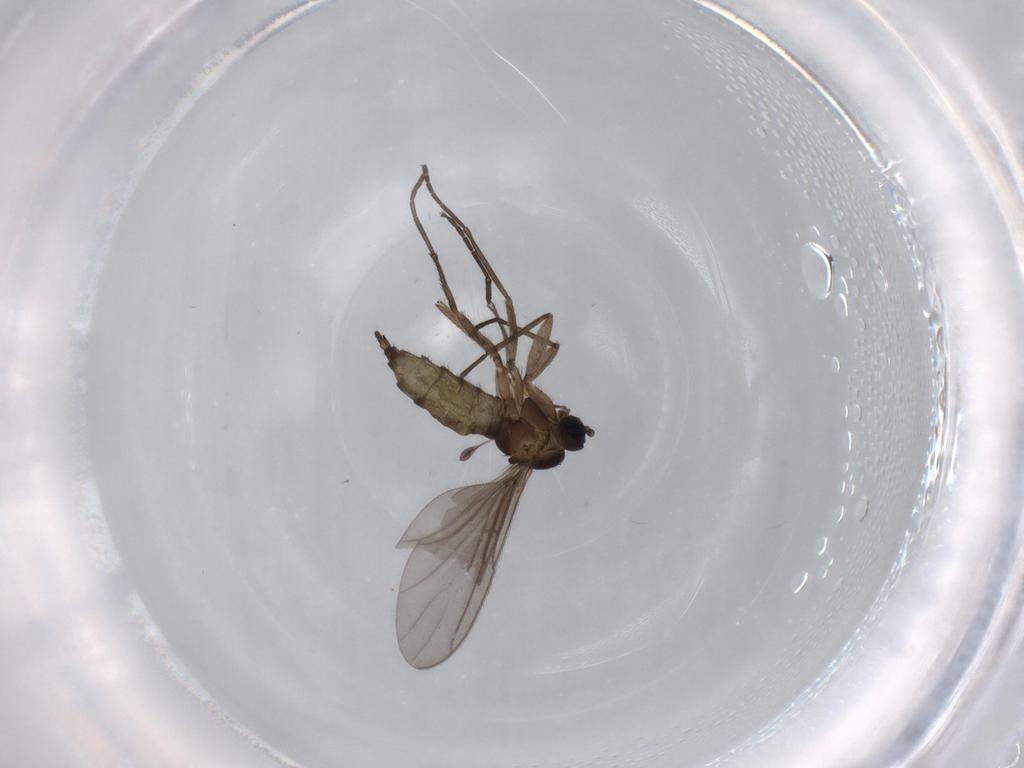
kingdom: Animalia
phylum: Arthropoda
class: Insecta
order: Diptera
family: Sciaridae
